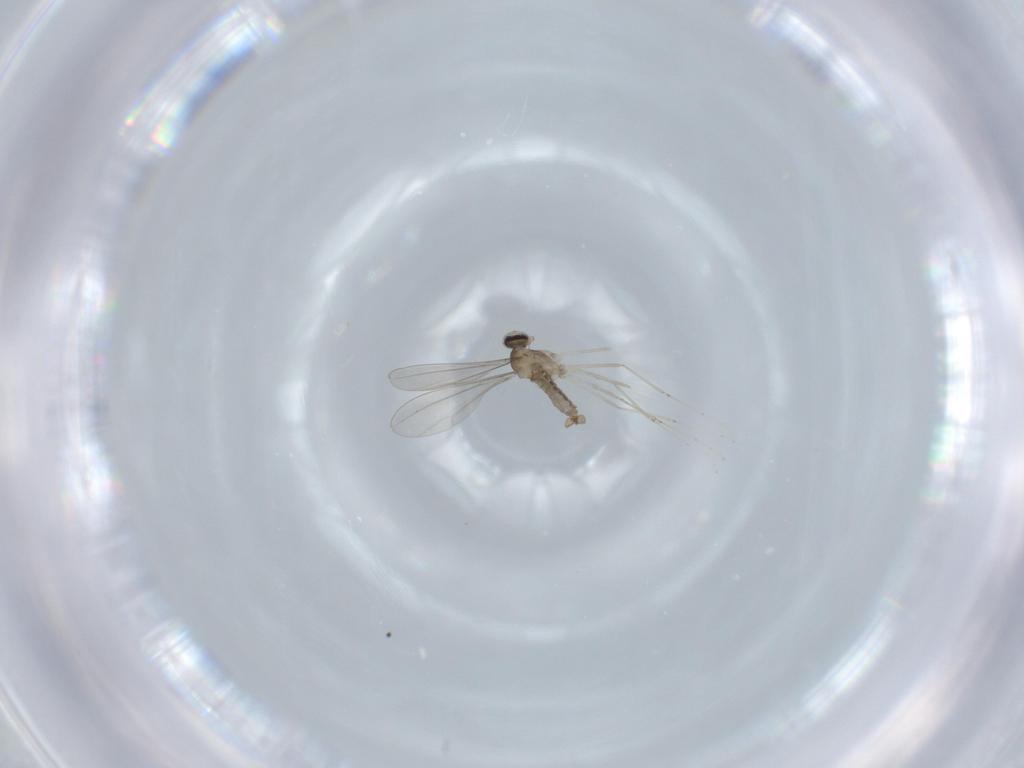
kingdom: Animalia
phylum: Arthropoda
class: Insecta
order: Diptera
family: Cecidomyiidae
